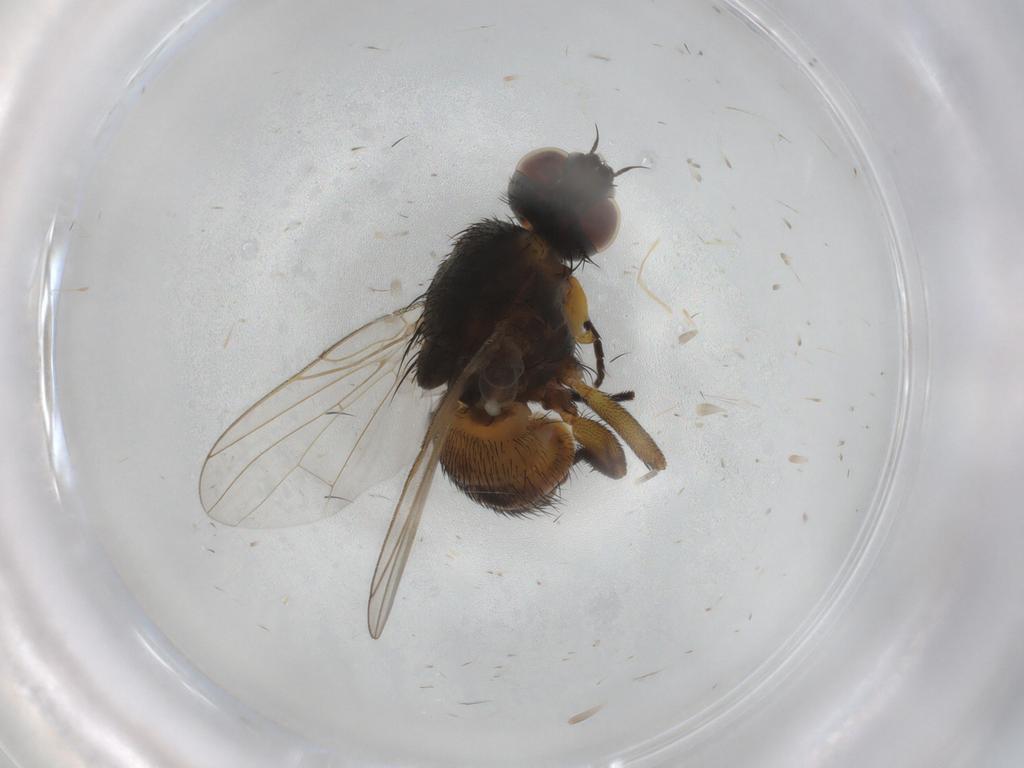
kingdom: Animalia
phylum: Arthropoda
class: Insecta
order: Diptera
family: Muscidae
